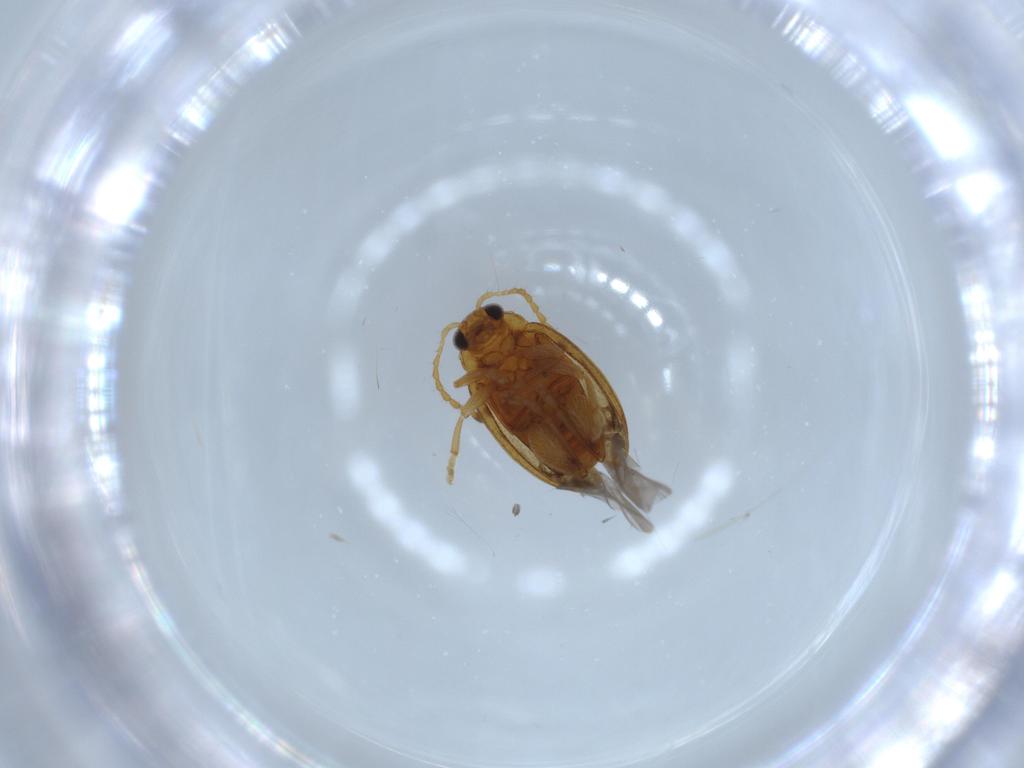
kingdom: Animalia
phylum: Arthropoda
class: Insecta
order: Coleoptera
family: Chrysomelidae
